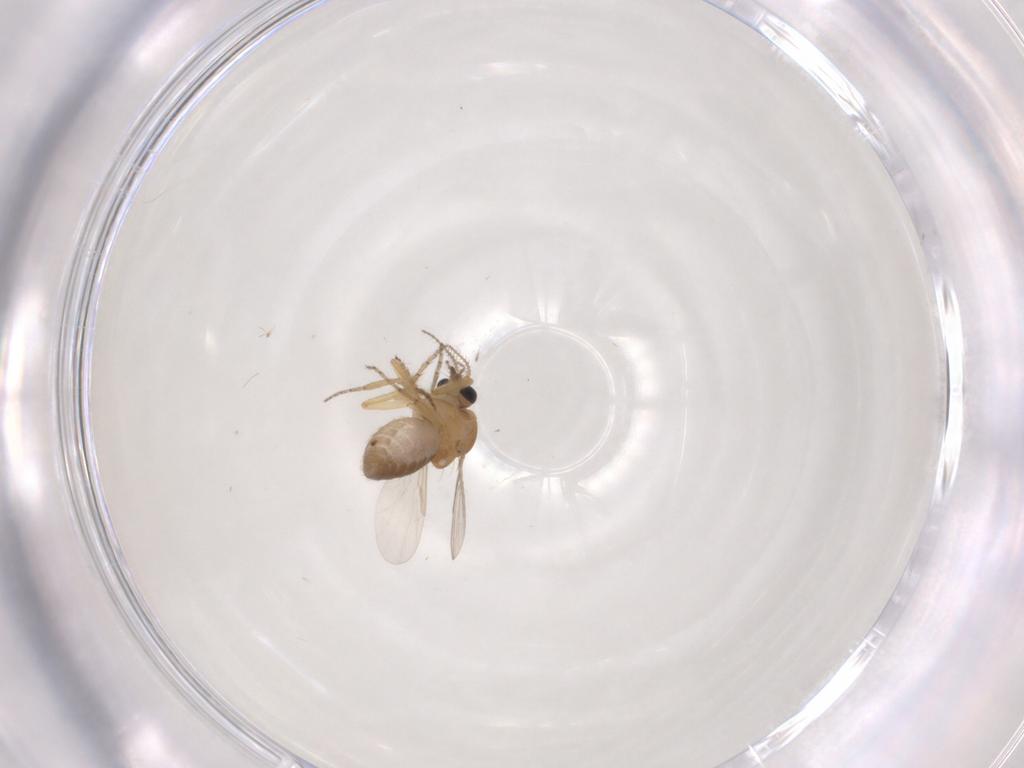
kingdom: Animalia
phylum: Arthropoda
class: Insecta
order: Diptera
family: Ceratopogonidae
